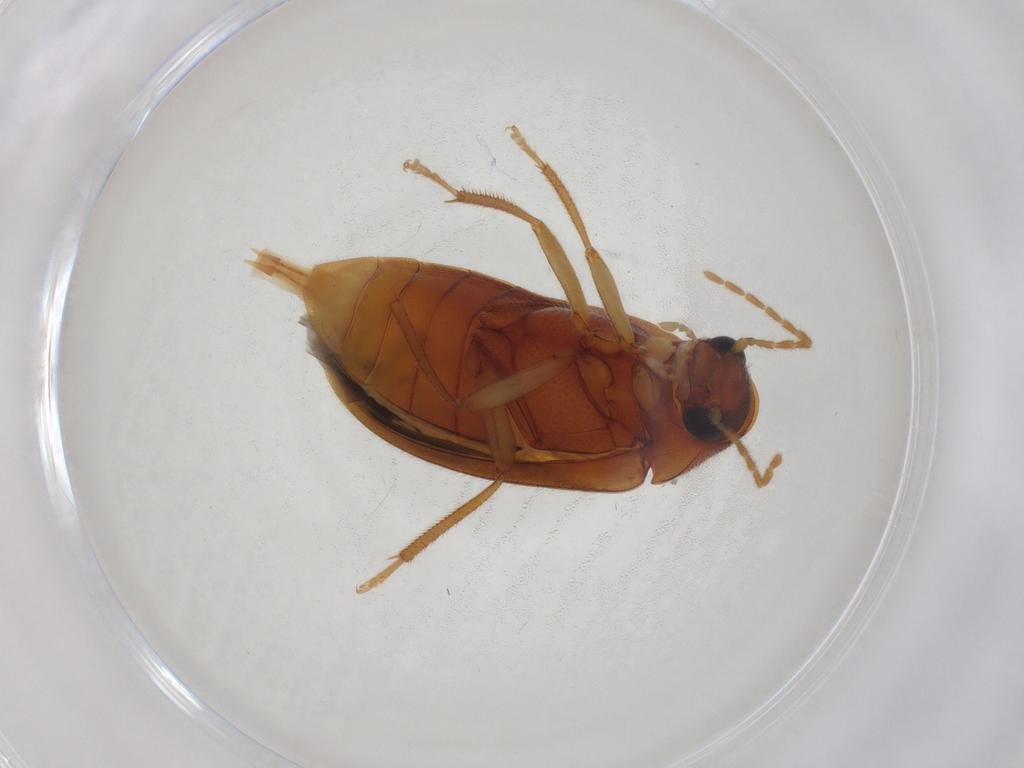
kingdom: Animalia
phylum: Arthropoda
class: Insecta
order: Coleoptera
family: Ptilodactylidae
